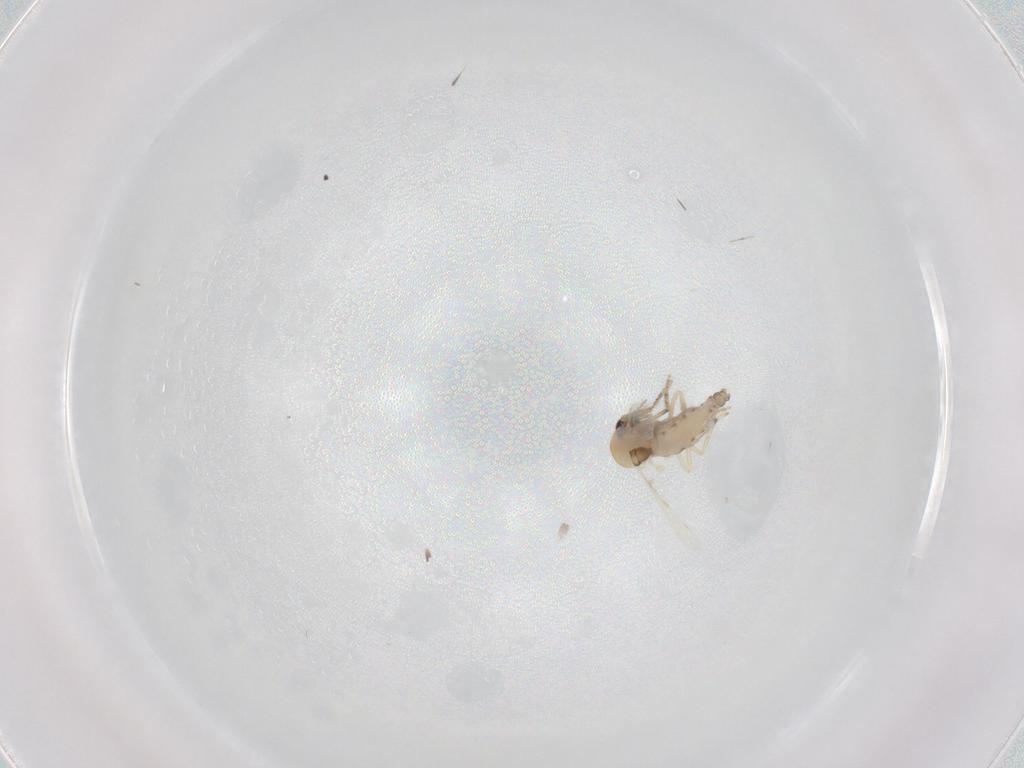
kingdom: Animalia
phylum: Arthropoda
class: Insecta
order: Diptera
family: Ceratopogonidae
